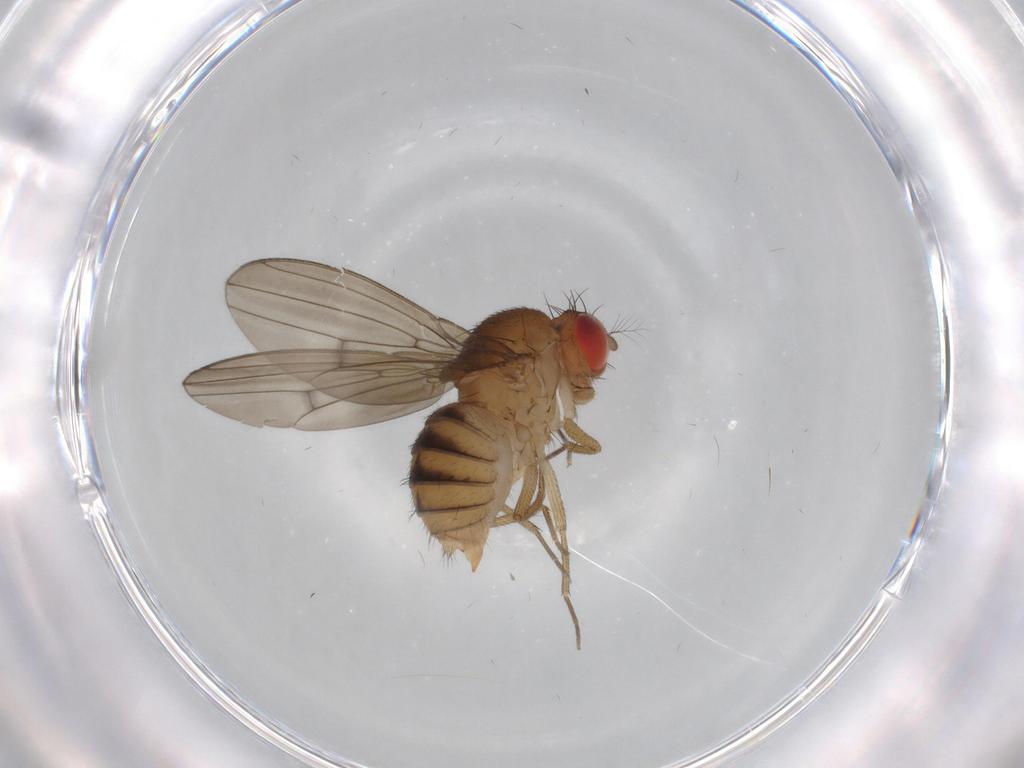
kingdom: Animalia
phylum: Arthropoda
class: Insecta
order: Diptera
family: Drosophilidae
